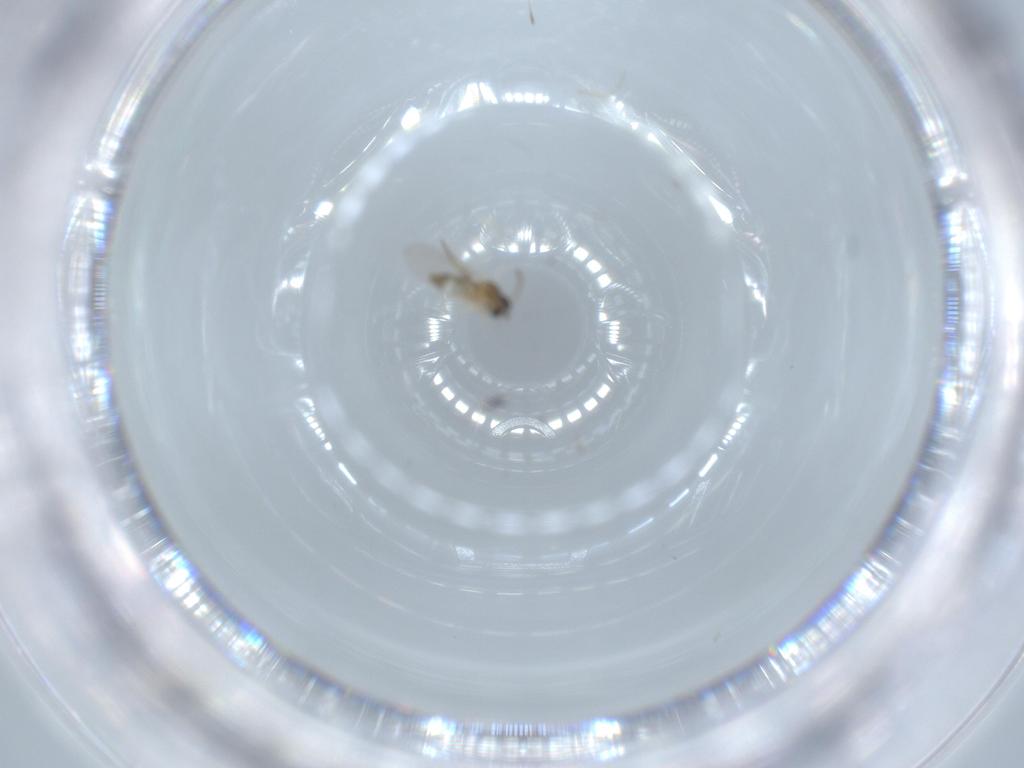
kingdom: Animalia
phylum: Arthropoda
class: Insecta
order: Diptera
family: Cecidomyiidae
